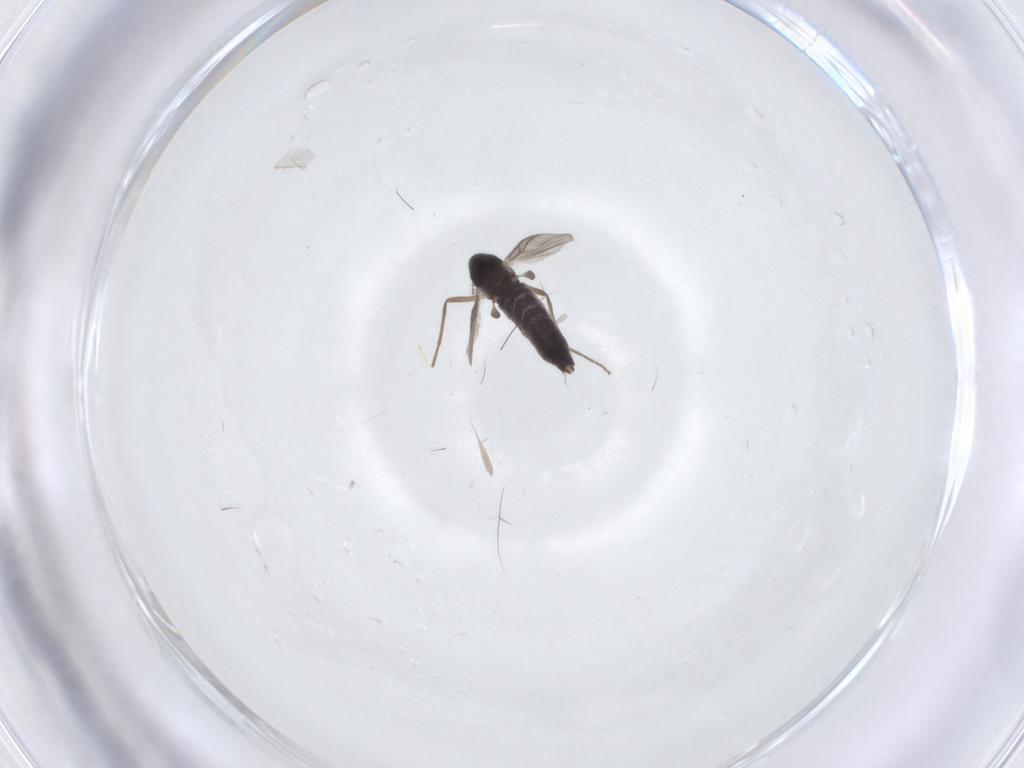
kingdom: Animalia
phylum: Arthropoda
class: Insecta
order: Diptera
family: Chironomidae
